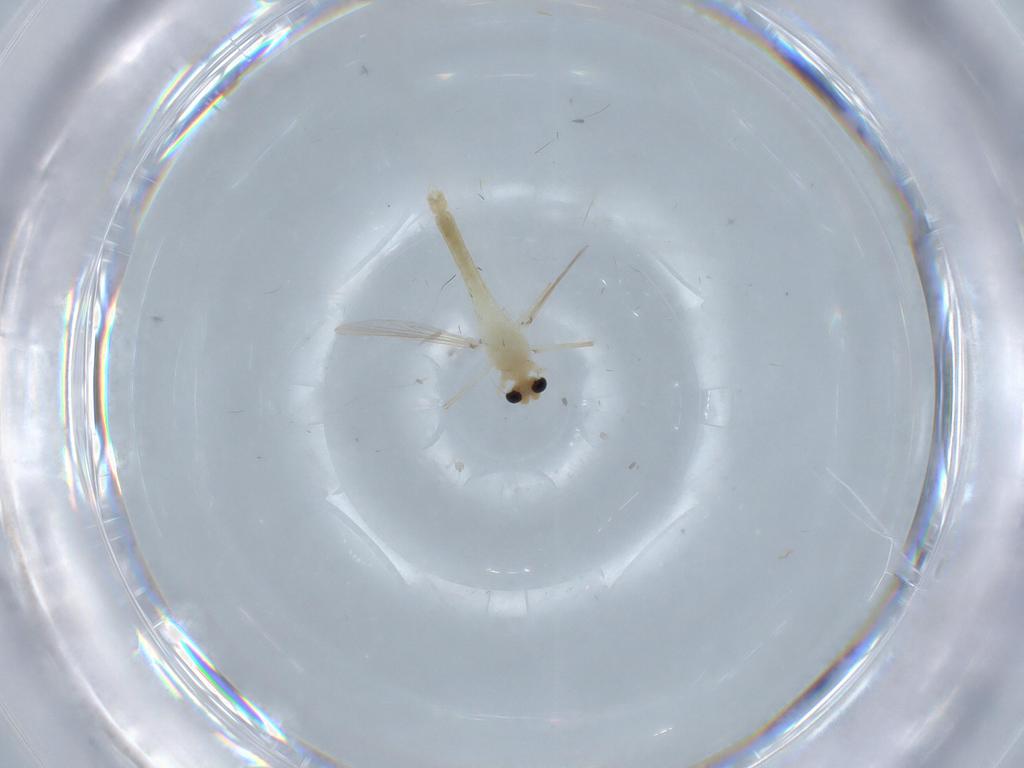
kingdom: Animalia
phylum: Arthropoda
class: Insecta
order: Diptera
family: Chironomidae
